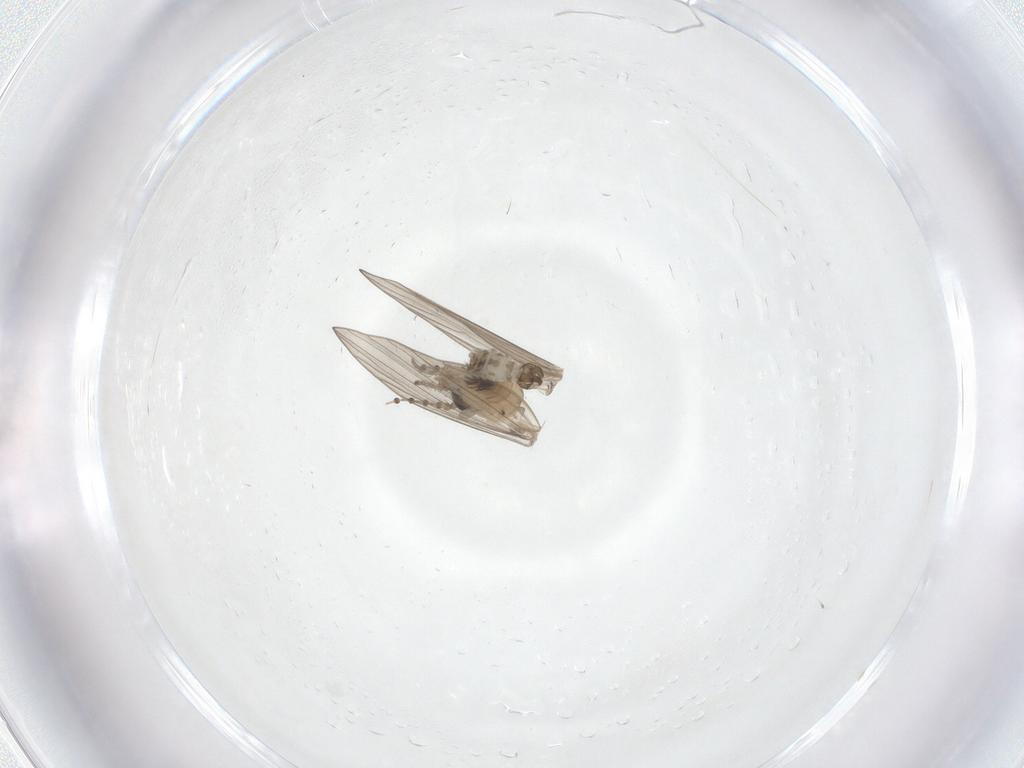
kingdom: Animalia
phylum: Arthropoda
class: Insecta
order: Diptera
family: Psychodidae
